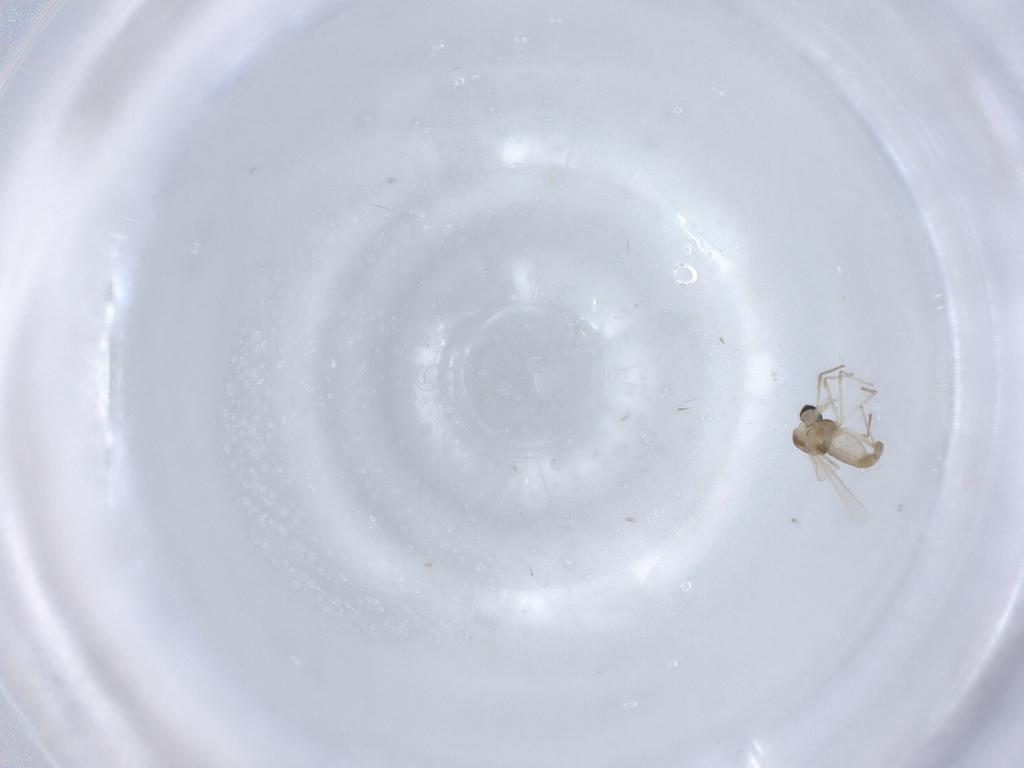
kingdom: Animalia
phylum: Arthropoda
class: Insecta
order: Diptera
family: Chironomidae
